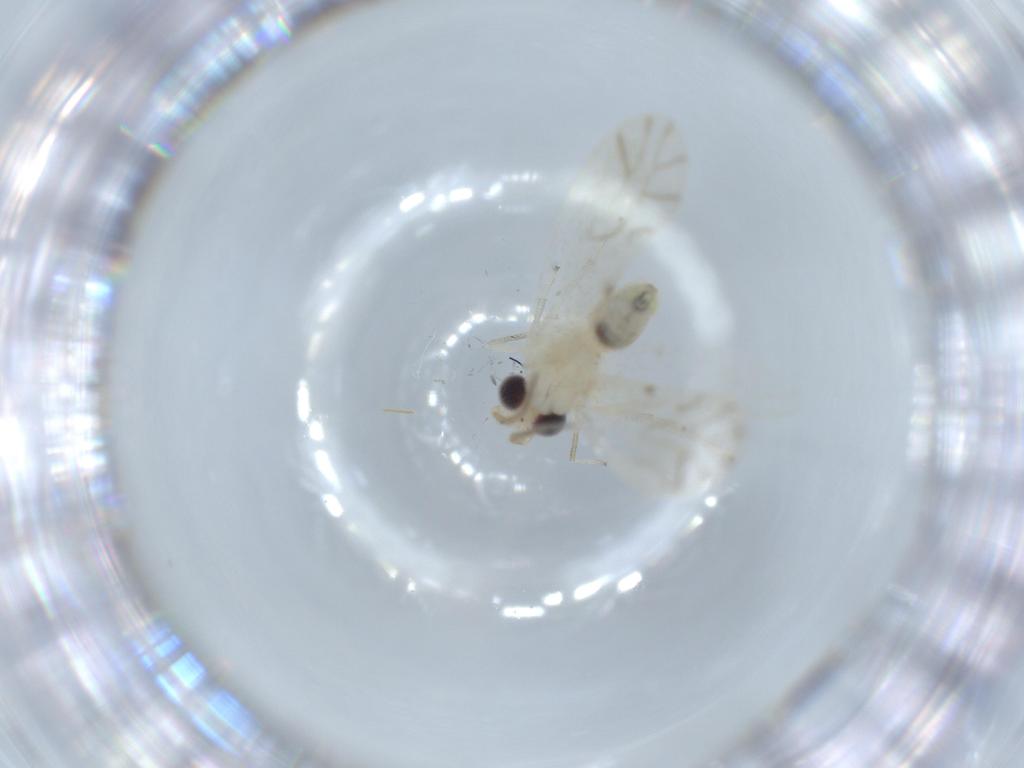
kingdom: Animalia
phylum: Arthropoda
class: Insecta
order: Psocodea
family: Caeciliusidae
